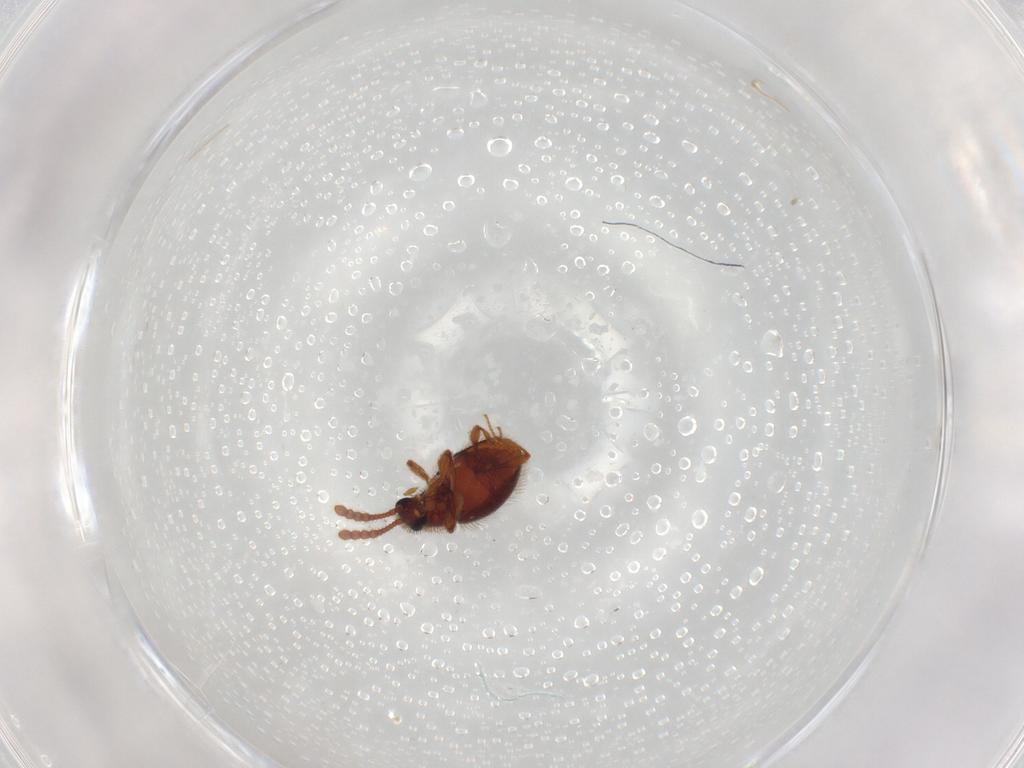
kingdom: Animalia
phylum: Arthropoda
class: Insecta
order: Coleoptera
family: Staphylinidae
